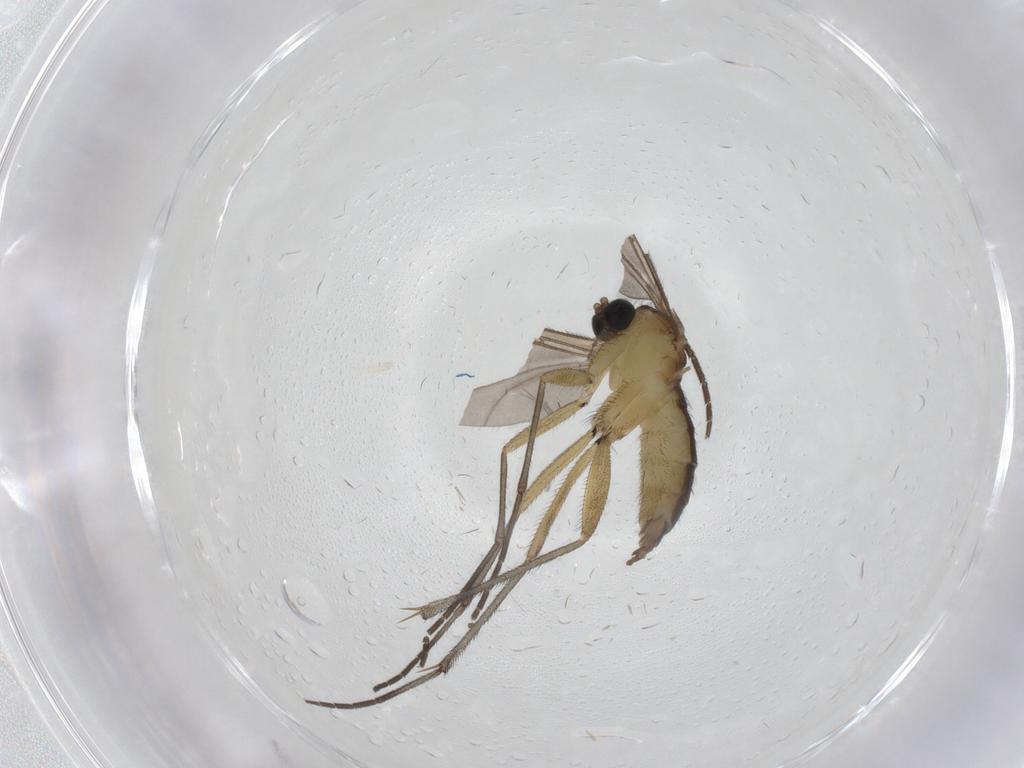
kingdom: Animalia
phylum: Arthropoda
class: Insecta
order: Diptera
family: Sciaridae
